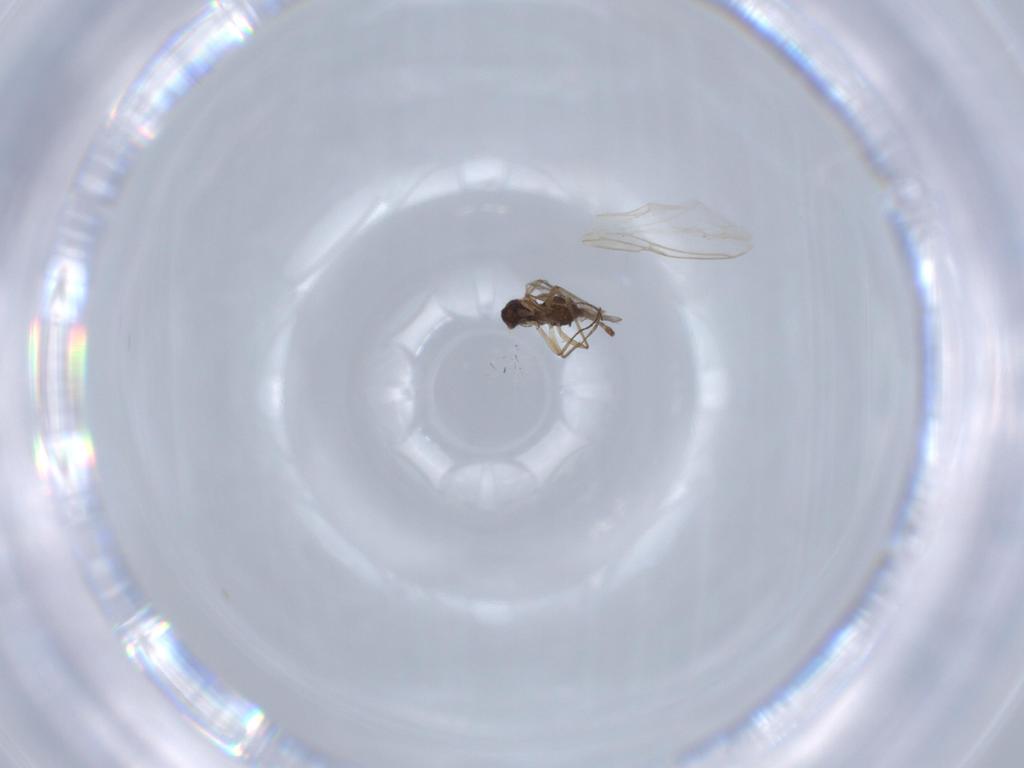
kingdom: Animalia
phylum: Arthropoda
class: Insecta
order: Diptera
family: Sciaridae
